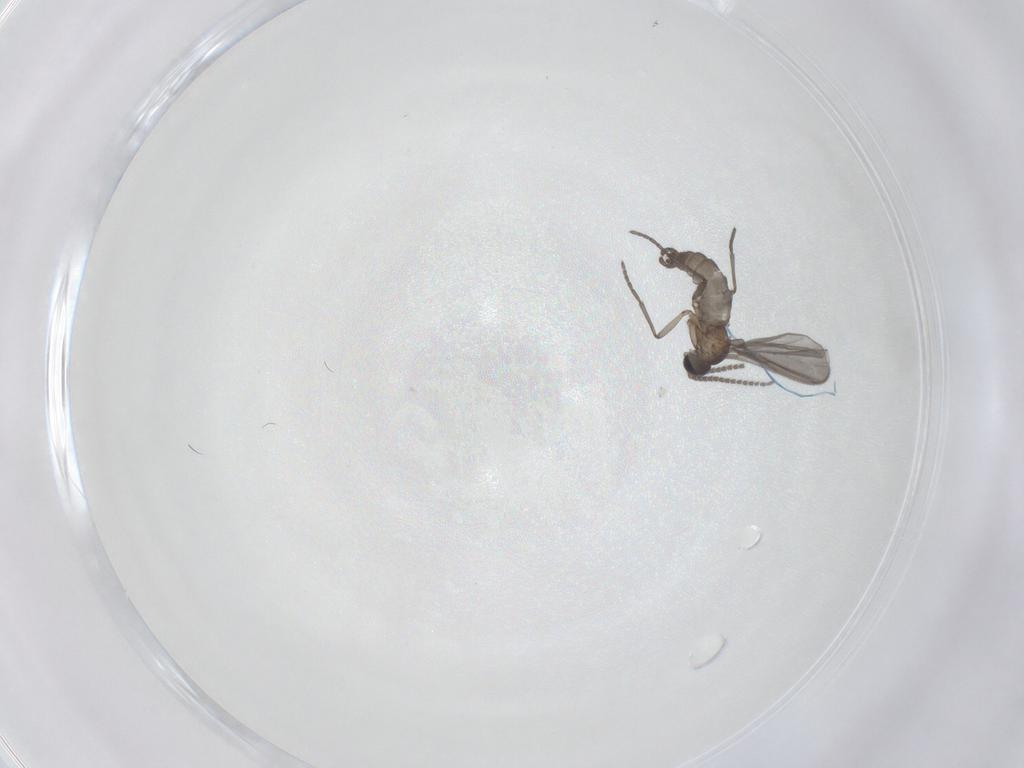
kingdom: Animalia
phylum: Arthropoda
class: Insecta
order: Diptera
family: Sciaridae
